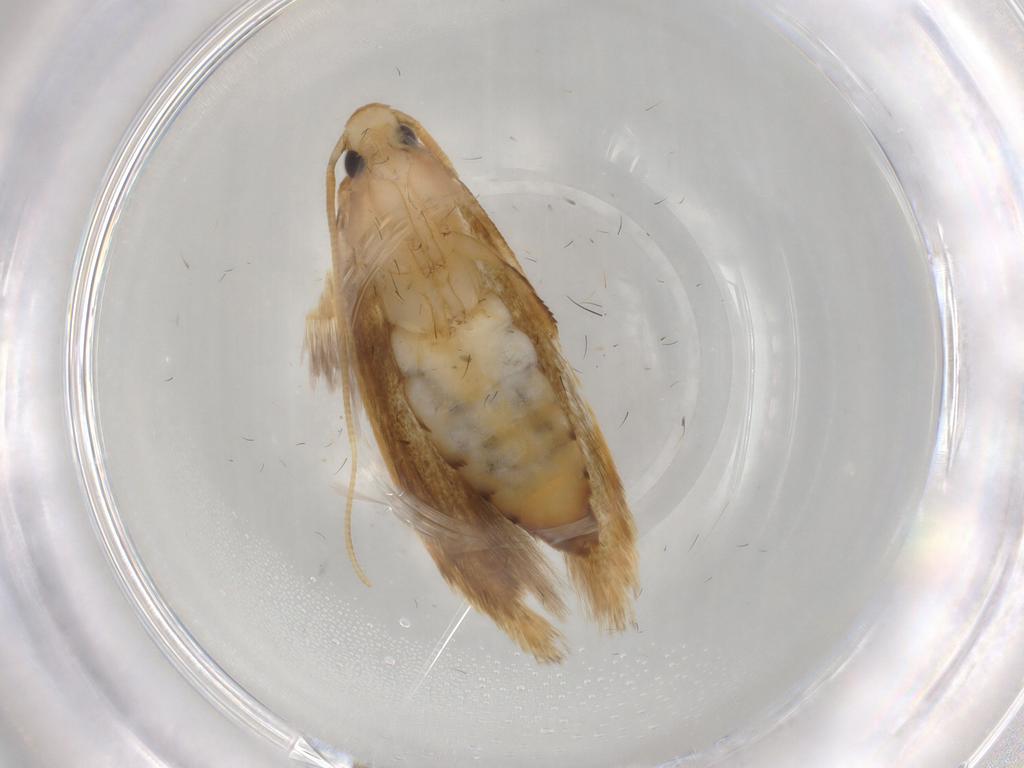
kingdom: Animalia
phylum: Arthropoda
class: Insecta
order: Lepidoptera
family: Tineidae
